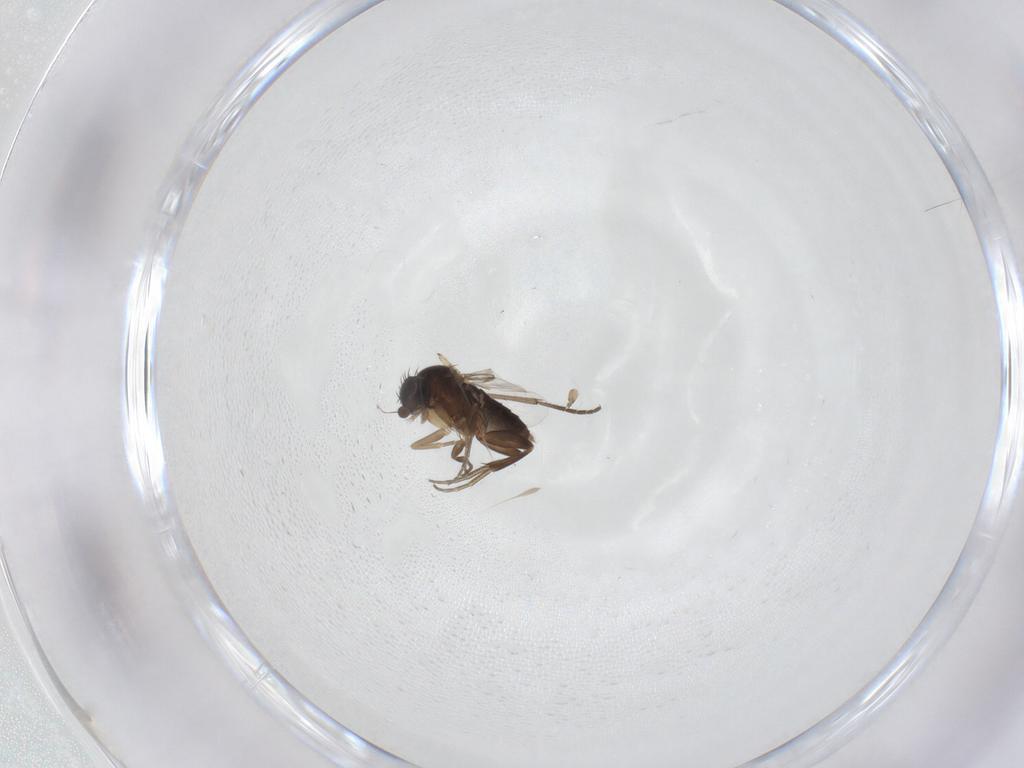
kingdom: Animalia
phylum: Arthropoda
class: Insecta
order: Diptera
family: Phoridae
